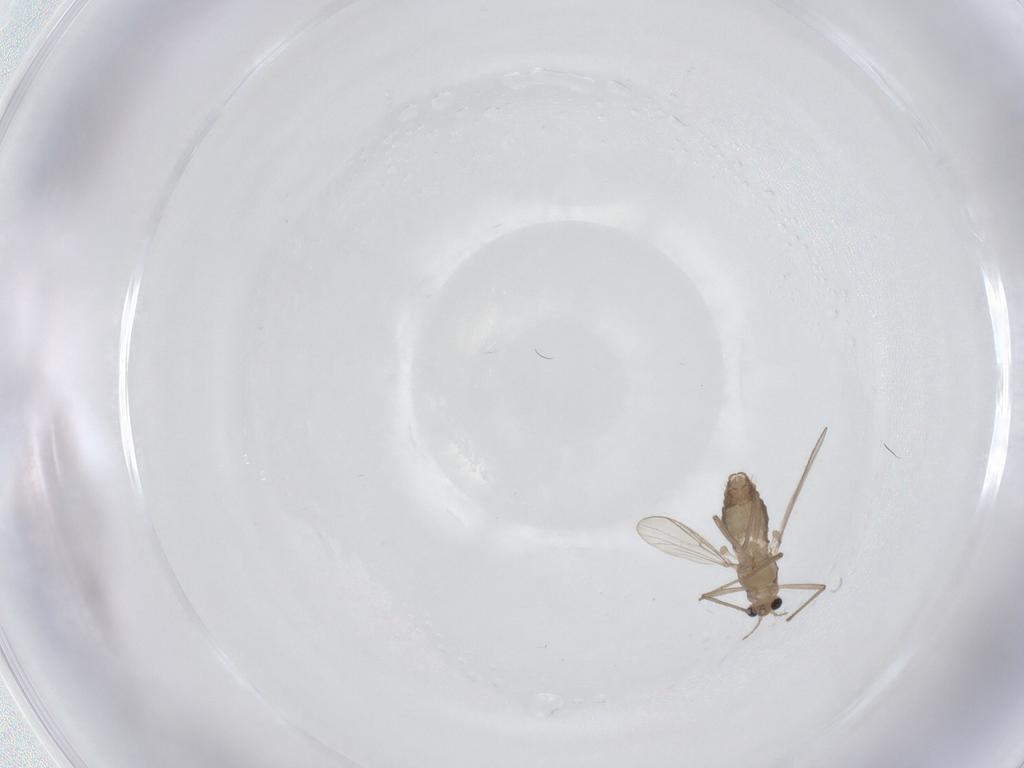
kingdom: Animalia
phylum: Arthropoda
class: Insecta
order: Diptera
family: Chironomidae
